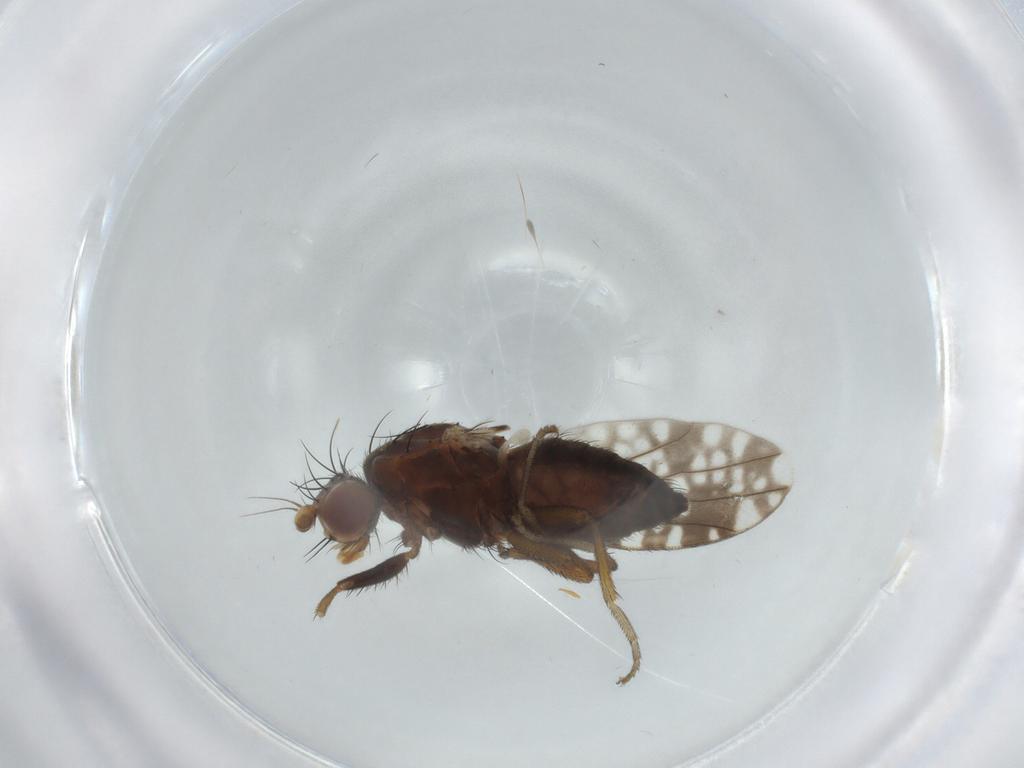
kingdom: Animalia
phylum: Arthropoda
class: Insecta
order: Diptera
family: Tephritidae
